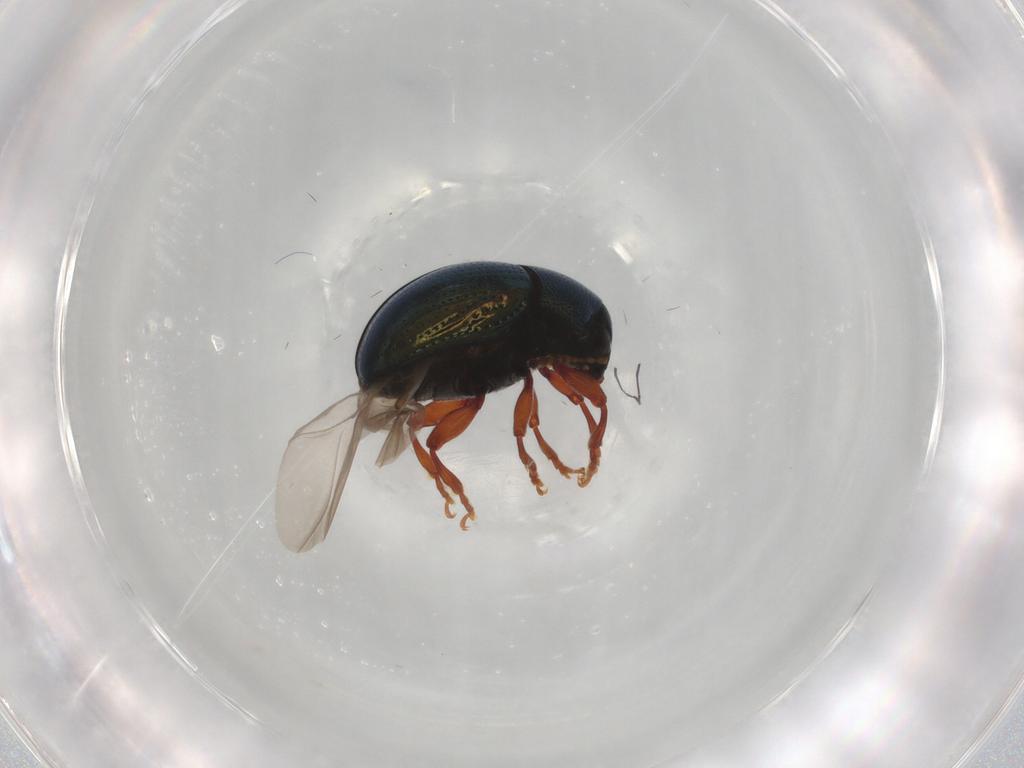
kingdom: Animalia
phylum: Arthropoda
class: Insecta
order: Coleoptera
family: Chrysomelidae
